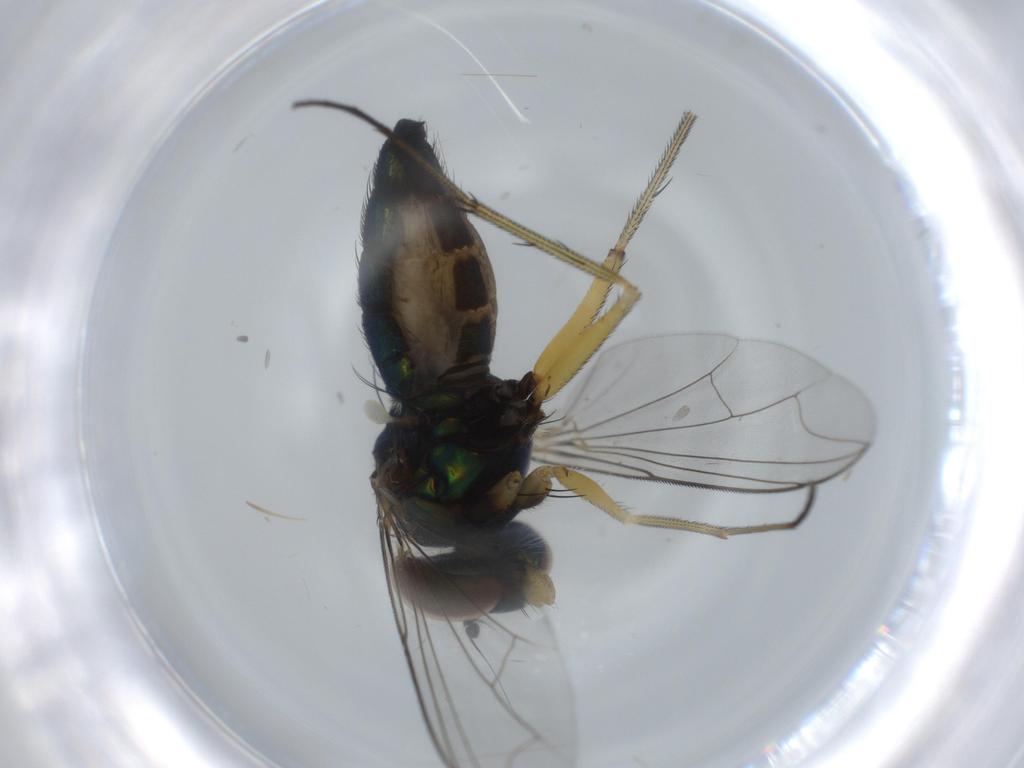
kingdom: Animalia
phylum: Arthropoda
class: Insecta
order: Diptera
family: Dolichopodidae
